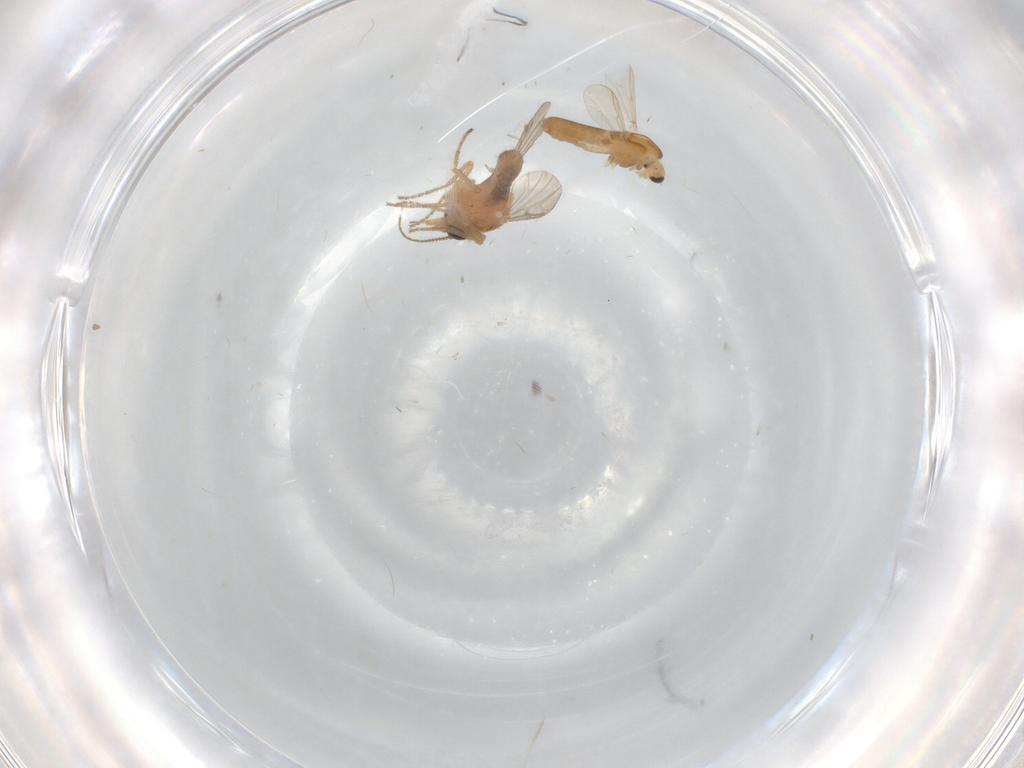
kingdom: Animalia
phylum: Arthropoda
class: Insecta
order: Diptera
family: Chironomidae
